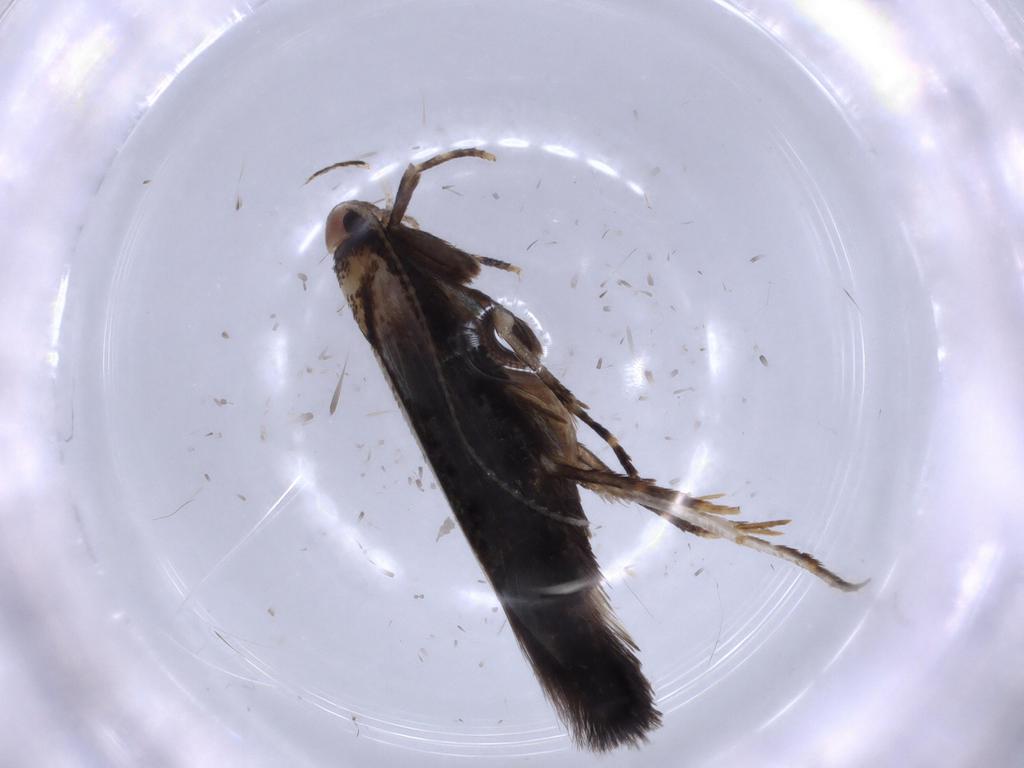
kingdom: Animalia
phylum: Arthropoda
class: Insecta
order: Lepidoptera
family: Cosmopterigidae
